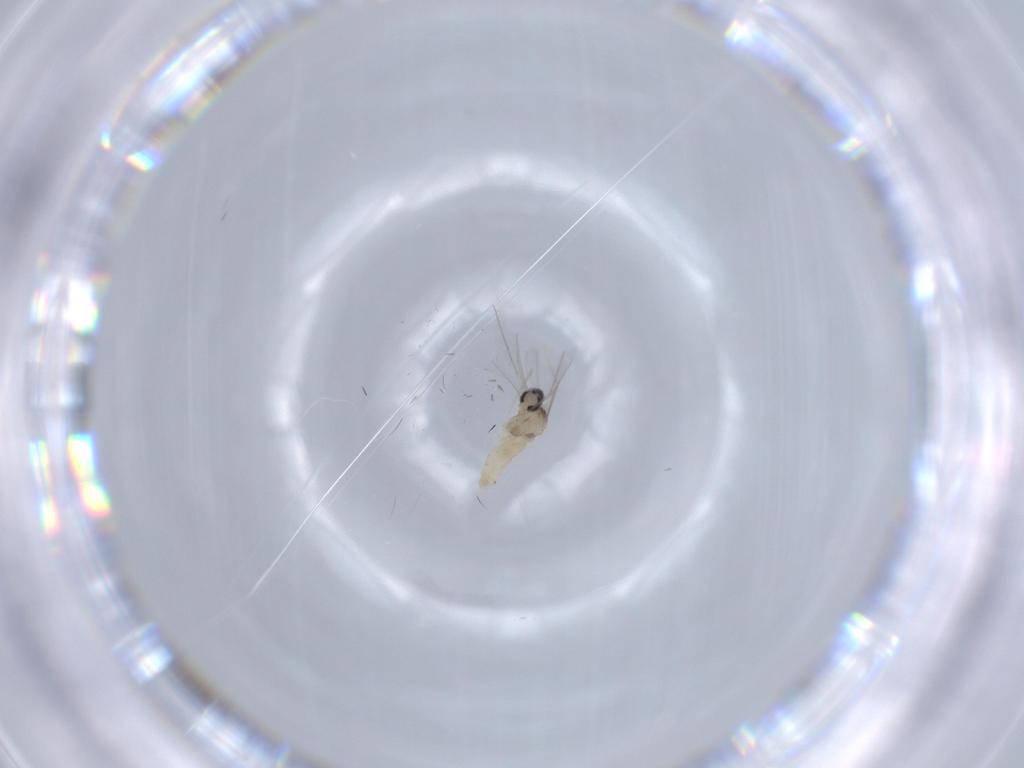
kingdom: Animalia
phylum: Arthropoda
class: Insecta
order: Diptera
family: Cecidomyiidae
